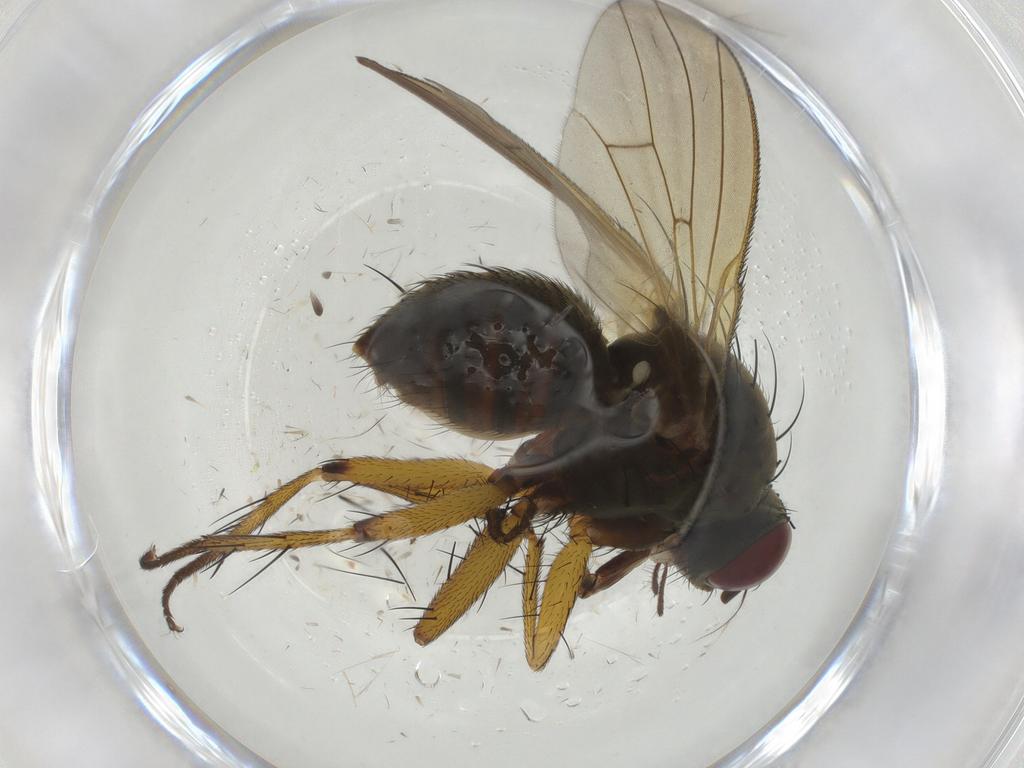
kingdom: Animalia
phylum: Arthropoda
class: Insecta
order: Diptera
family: Muscidae
